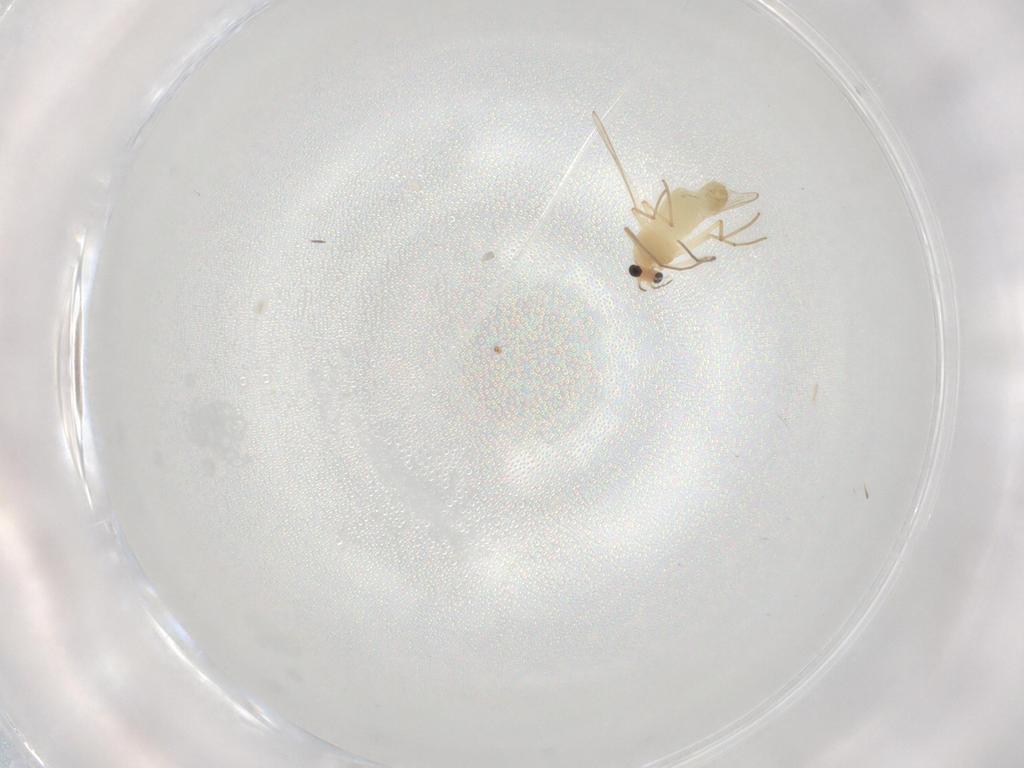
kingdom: Animalia
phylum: Arthropoda
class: Insecta
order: Diptera
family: Chironomidae
